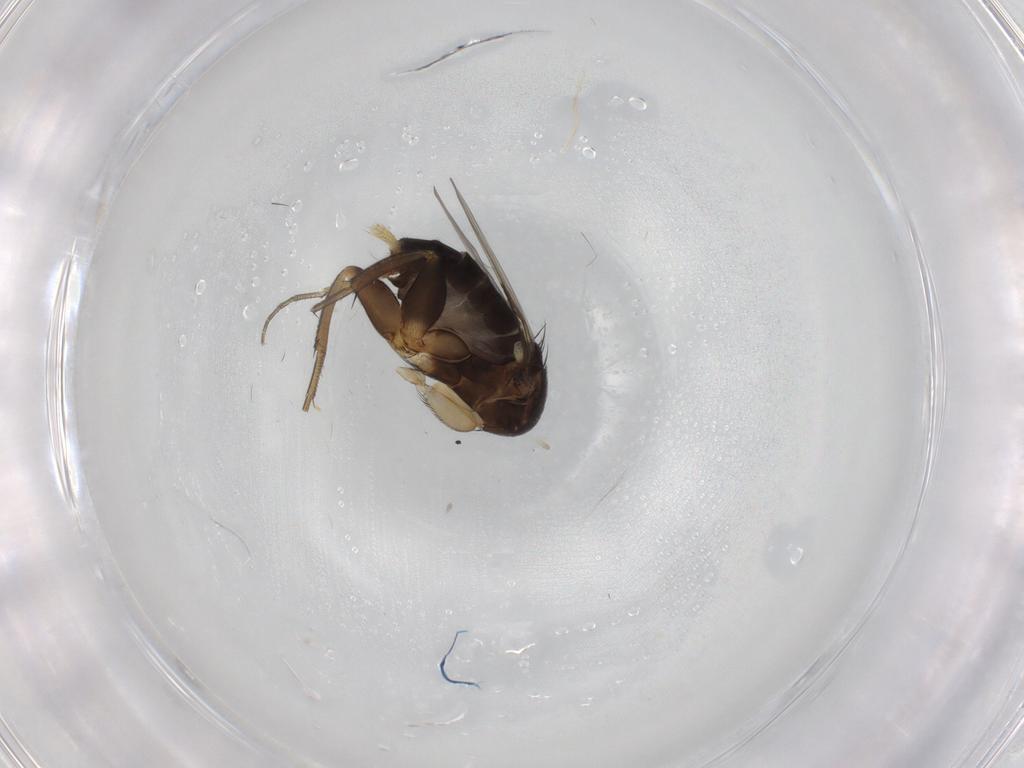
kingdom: Animalia
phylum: Arthropoda
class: Insecta
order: Diptera
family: Phoridae
